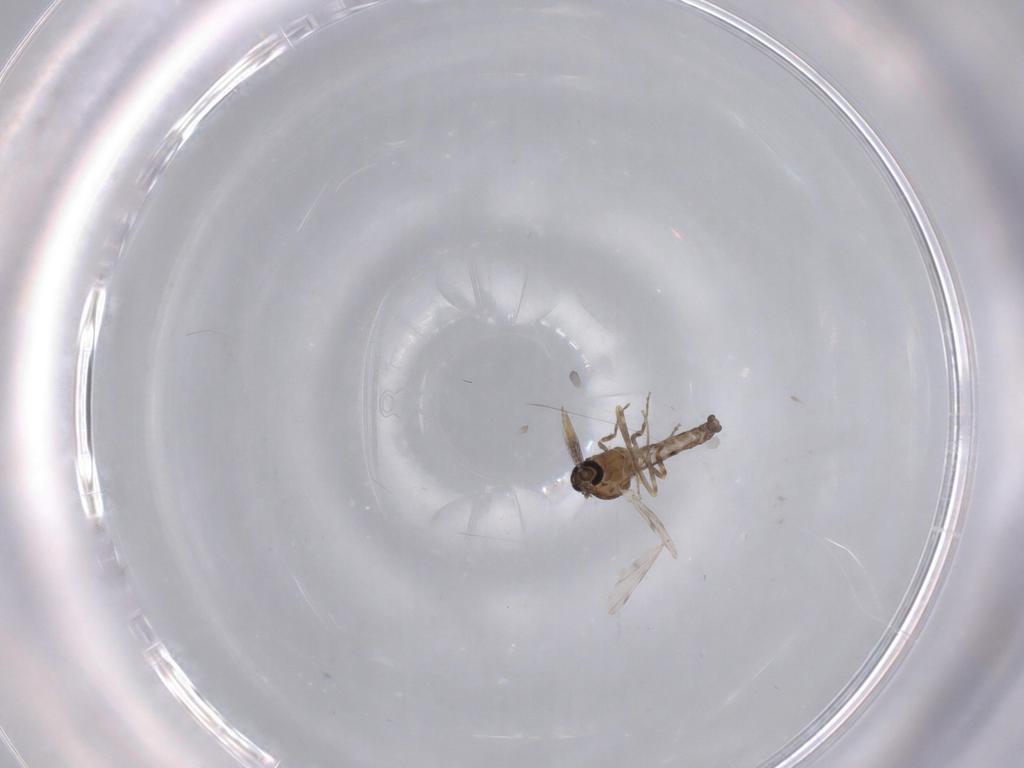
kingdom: Animalia
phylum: Arthropoda
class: Insecta
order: Diptera
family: Ceratopogonidae
